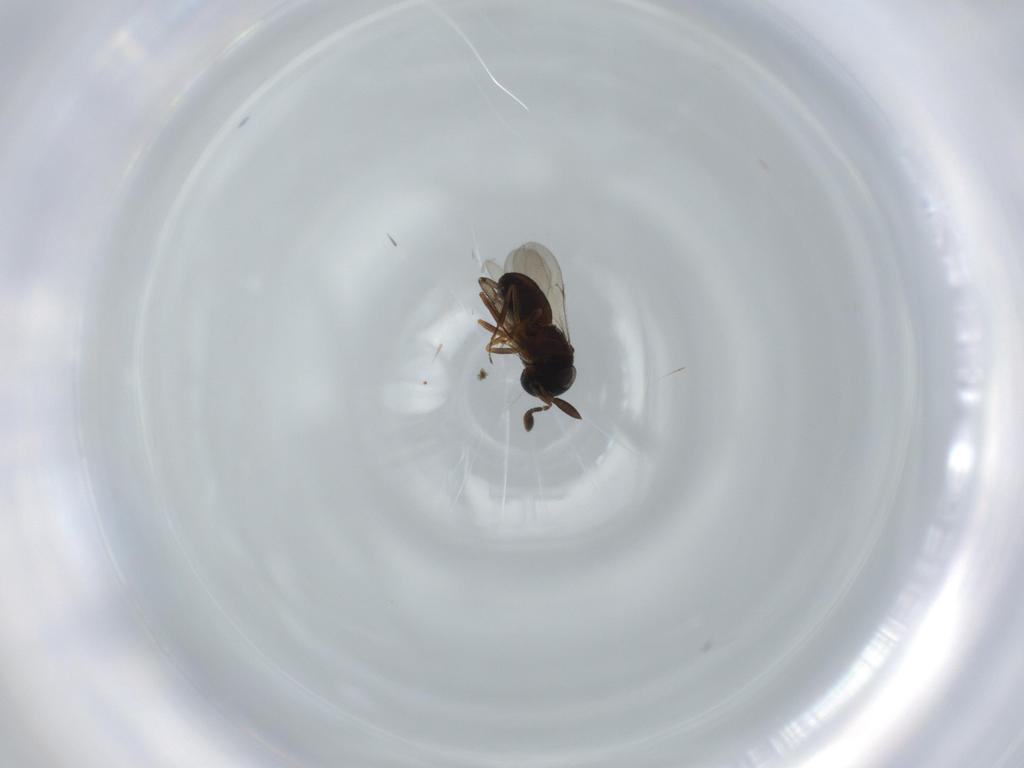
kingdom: Animalia
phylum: Arthropoda
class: Insecta
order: Hymenoptera
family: Scelionidae
